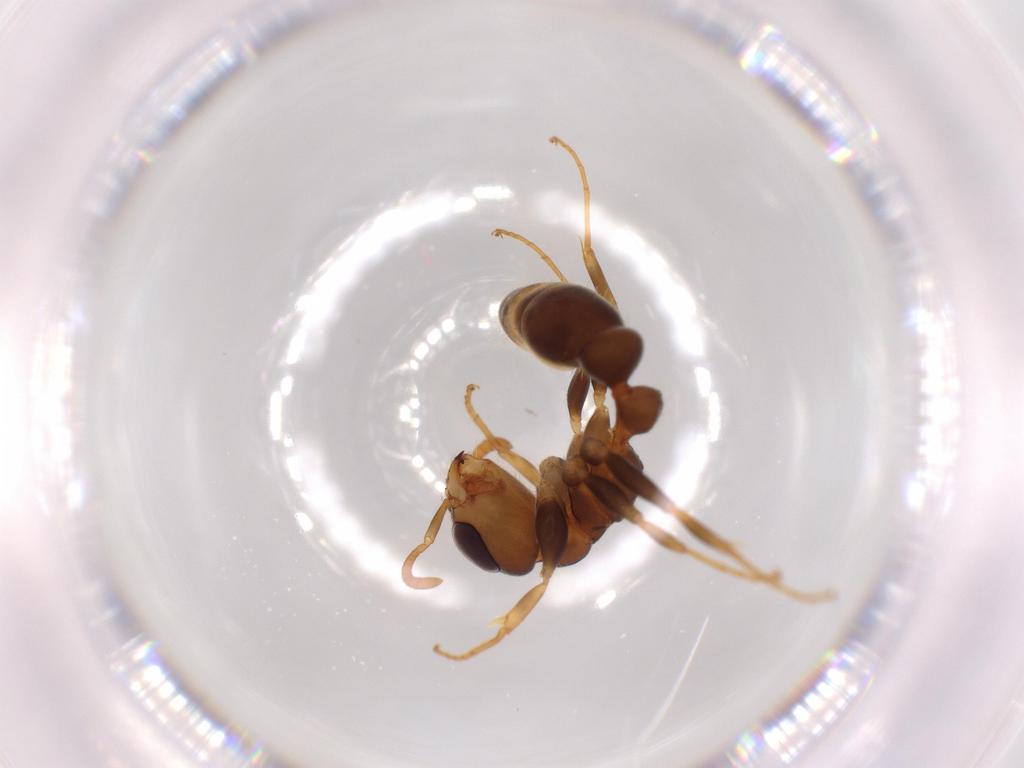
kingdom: Animalia
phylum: Arthropoda
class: Insecta
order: Hymenoptera
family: Formicidae
